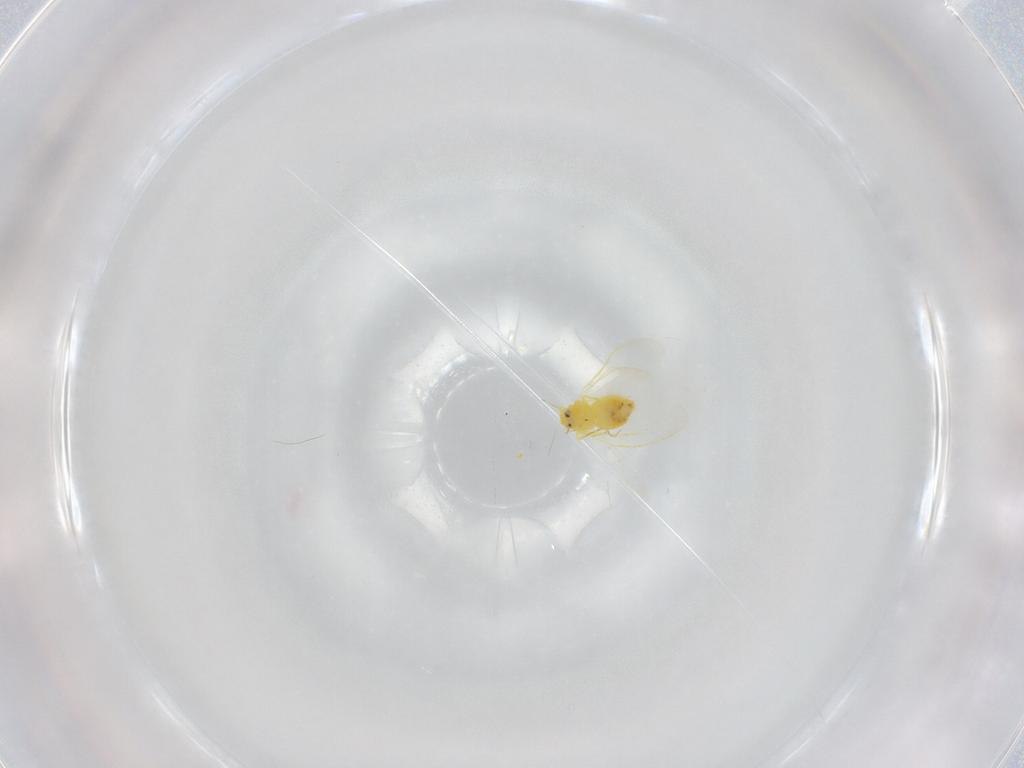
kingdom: Animalia
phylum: Arthropoda
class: Insecta
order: Hemiptera
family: Aleyrodidae
